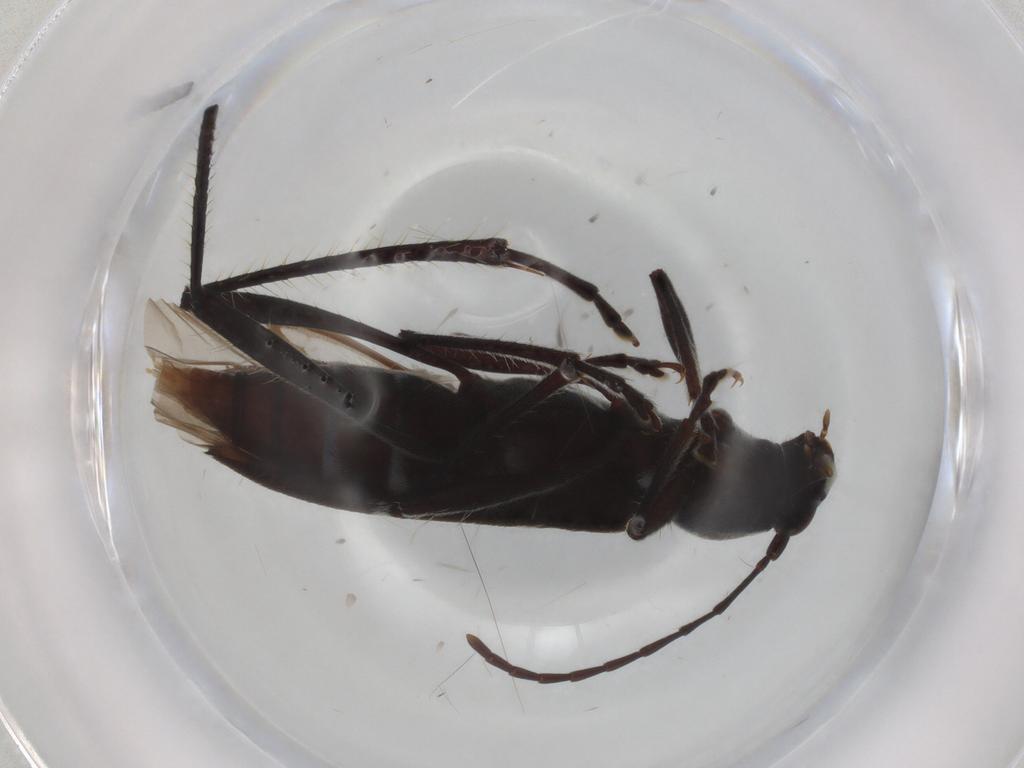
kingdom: Animalia
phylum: Arthropoda
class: Insecta
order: Coleoptera
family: Cerambycidae
